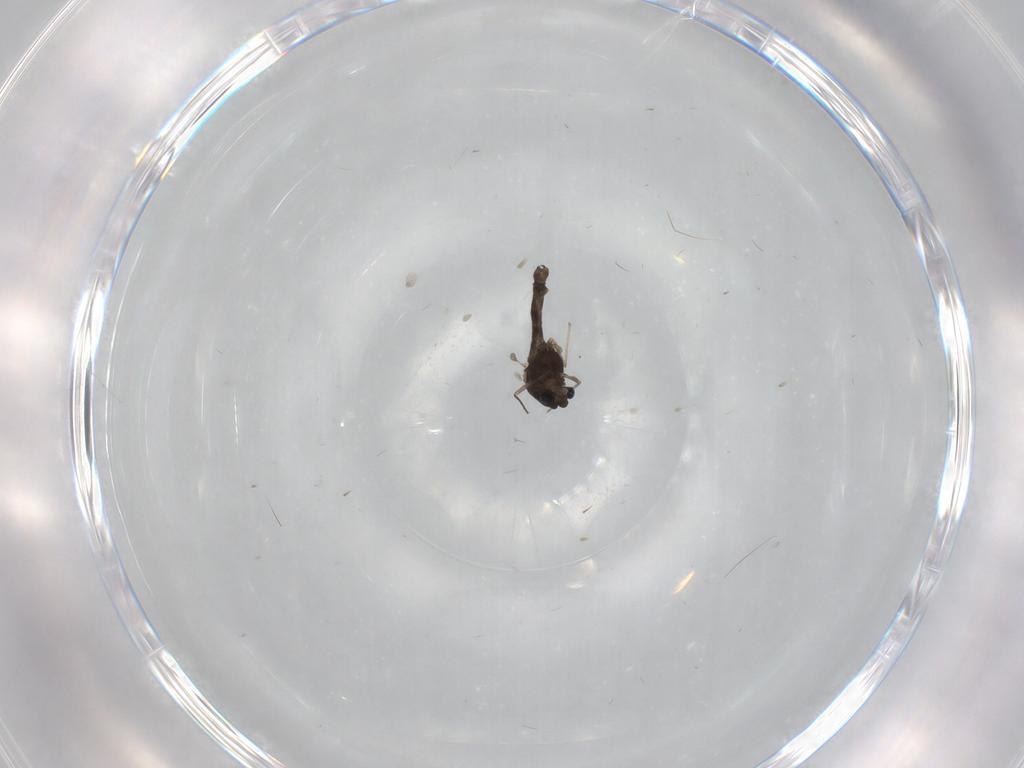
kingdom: Animalia
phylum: Arthropoda
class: Insecta
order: Diptera
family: Chironomidae
